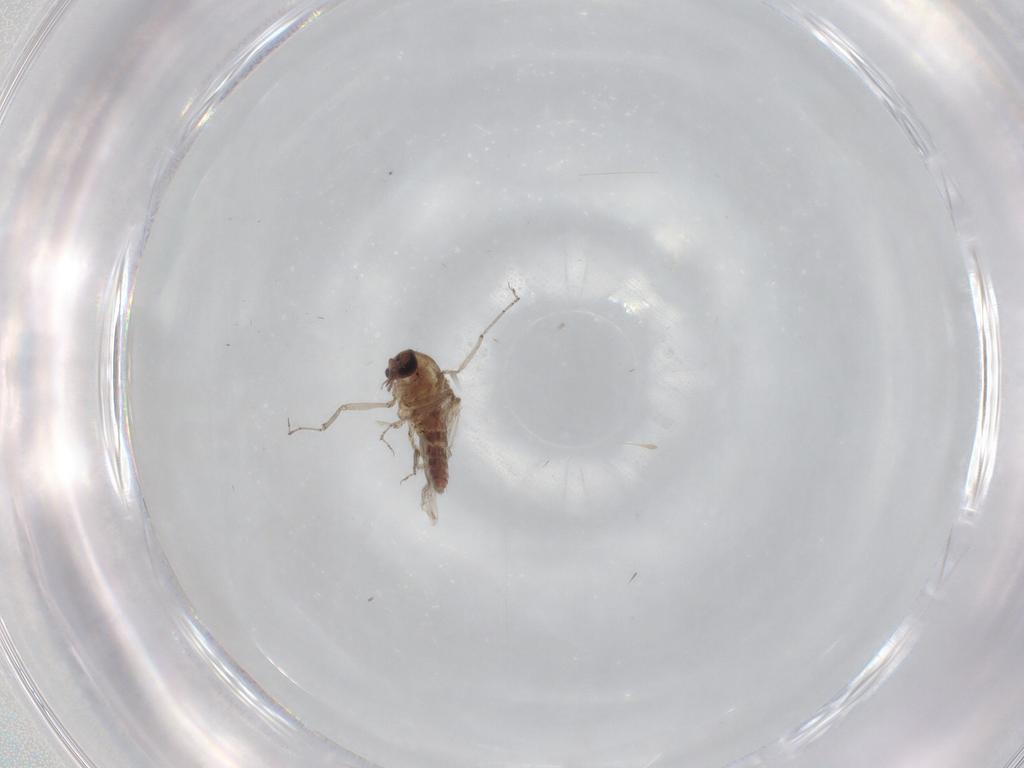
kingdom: Animalia
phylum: Arthropoda
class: Insecta
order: Diptera
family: Drosophilidae
